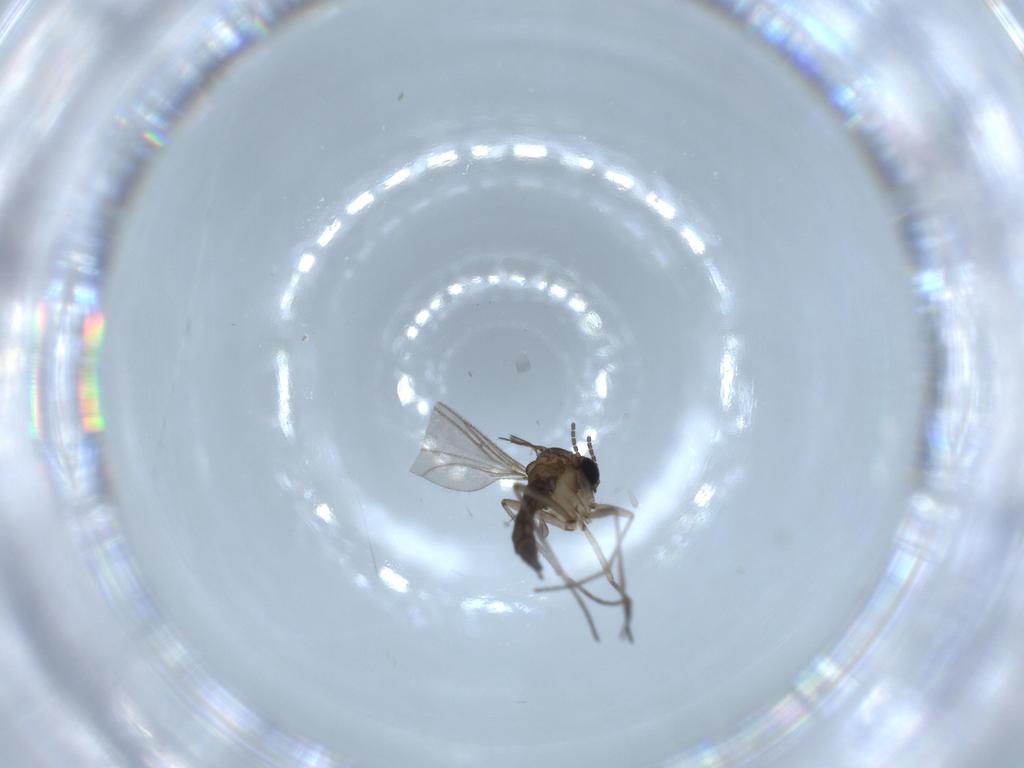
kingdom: Animalia
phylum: Arthropoda
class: Insecta
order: Diptera
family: Sciaridae
